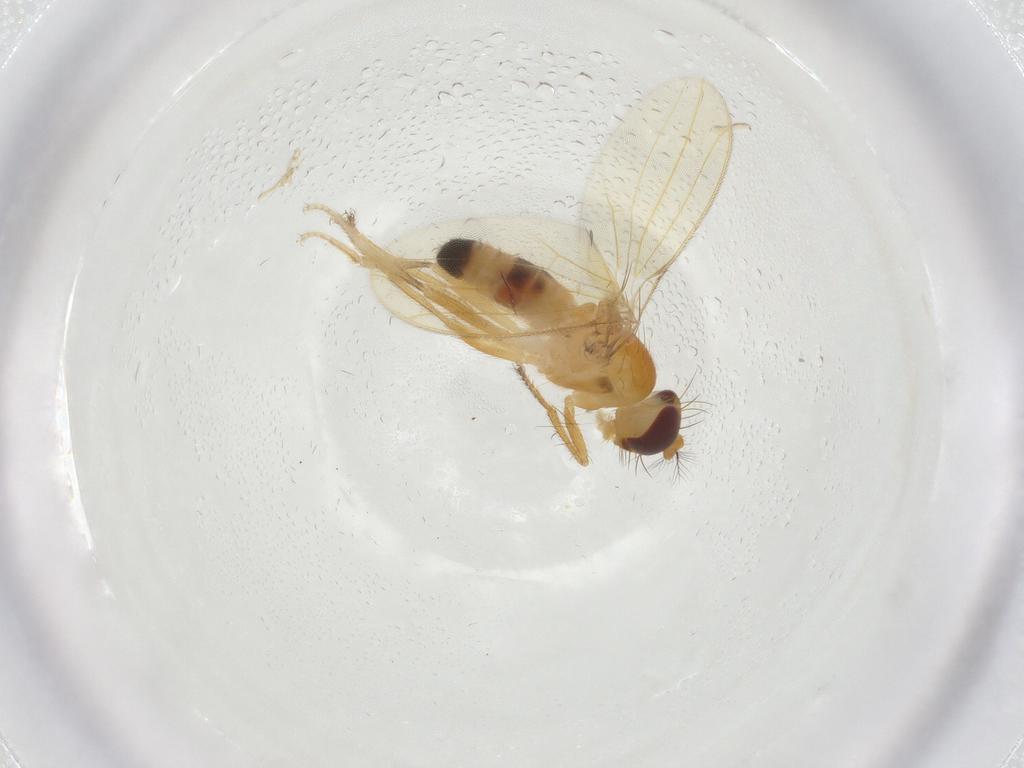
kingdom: Animalia
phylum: Arthropoda
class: Insecta
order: Diptera
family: Periscelididae
